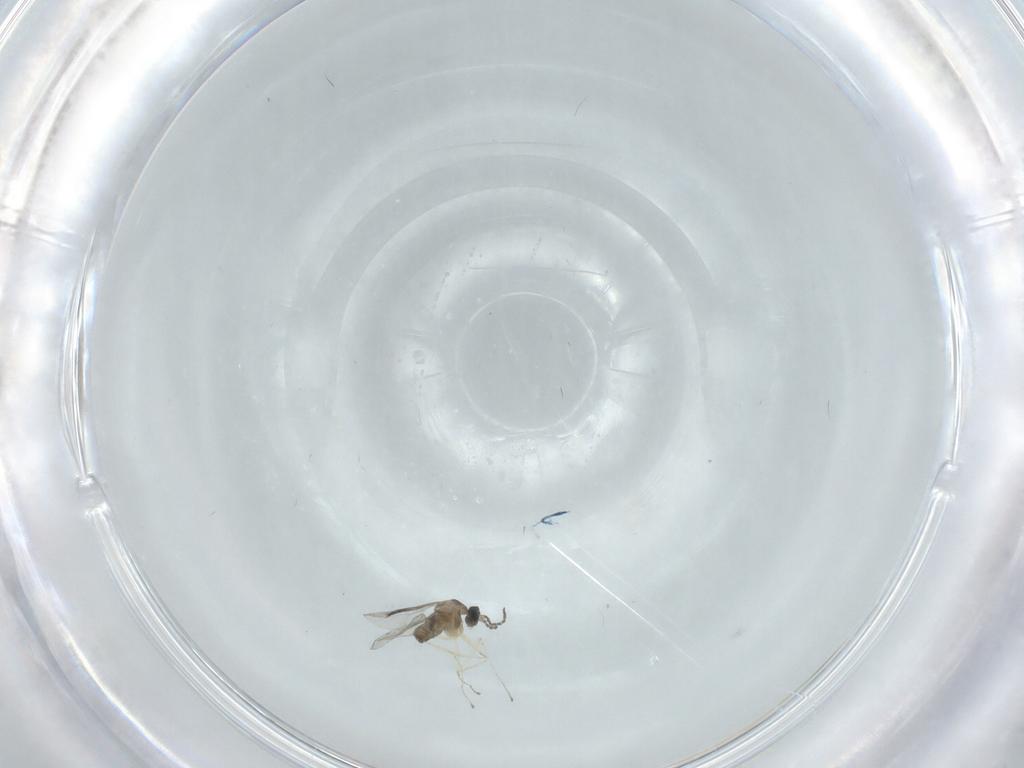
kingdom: Animalia
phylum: Arthropoda
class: Insecta
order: Diptera
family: Cecidomyiidae
